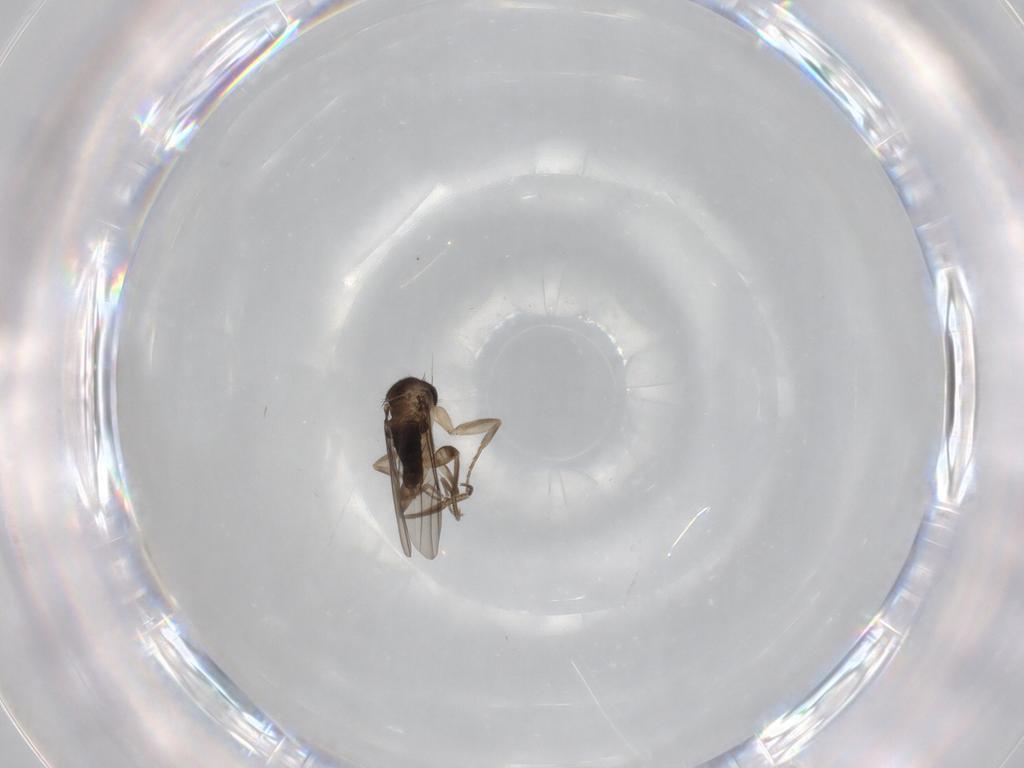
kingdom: Animalia
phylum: Arthropoda
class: Insecta
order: Diptera
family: Phoridae
